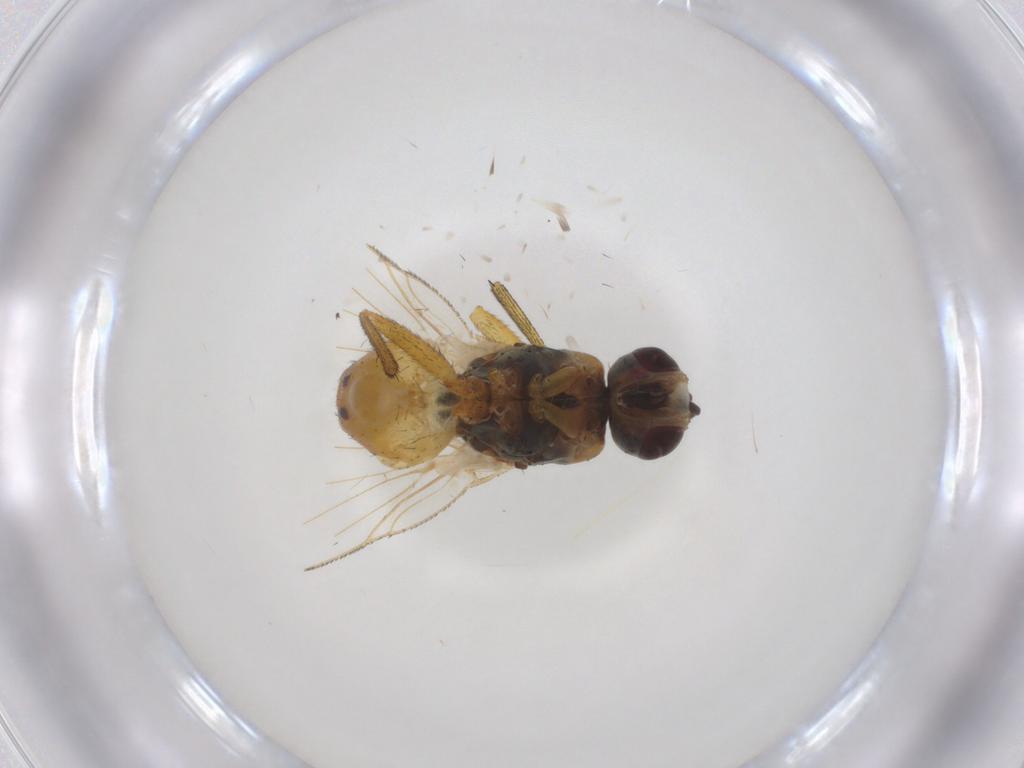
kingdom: Animalia
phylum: Arthropoda
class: Insecta
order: Diptera
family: Muscidae
